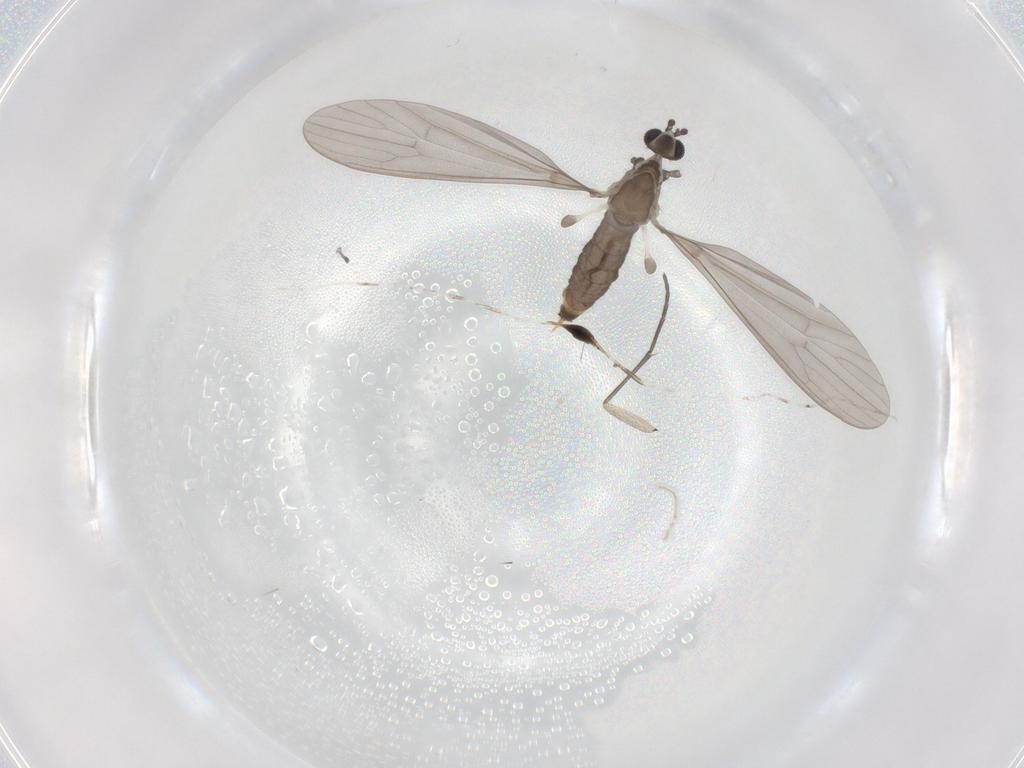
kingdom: Animalia
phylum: Arthropoda
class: Insecta
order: Diptera
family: Limoniidae
